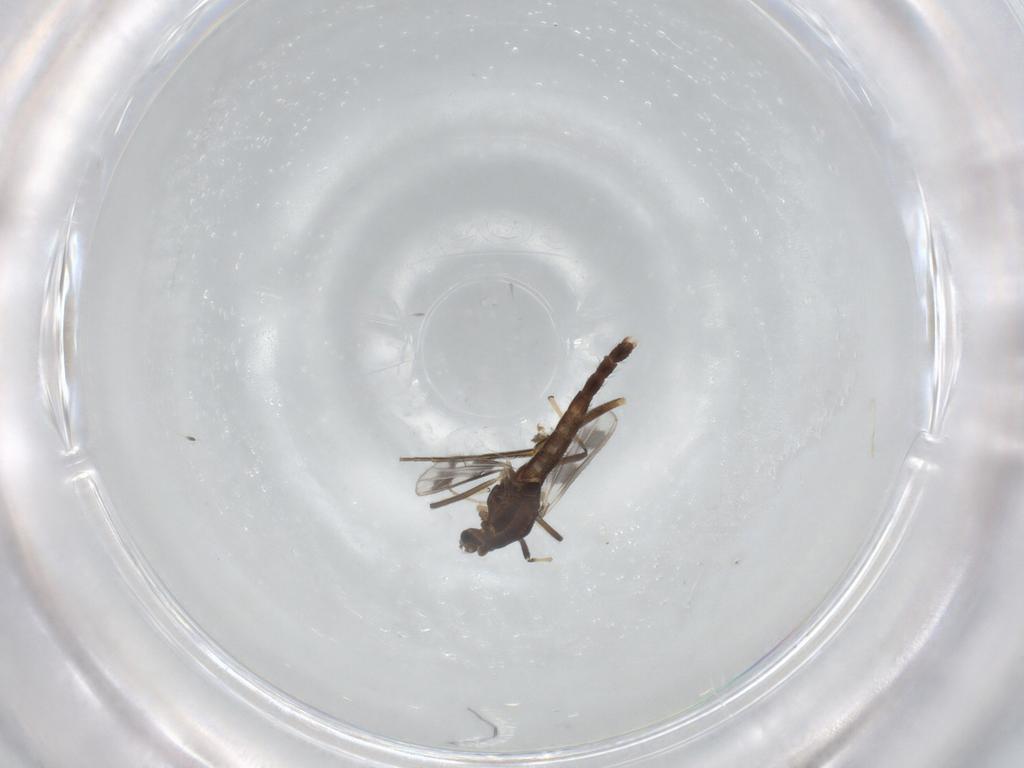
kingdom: Animalia
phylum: Arthropoda
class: Insecta
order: Diptera
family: Chironomidae
